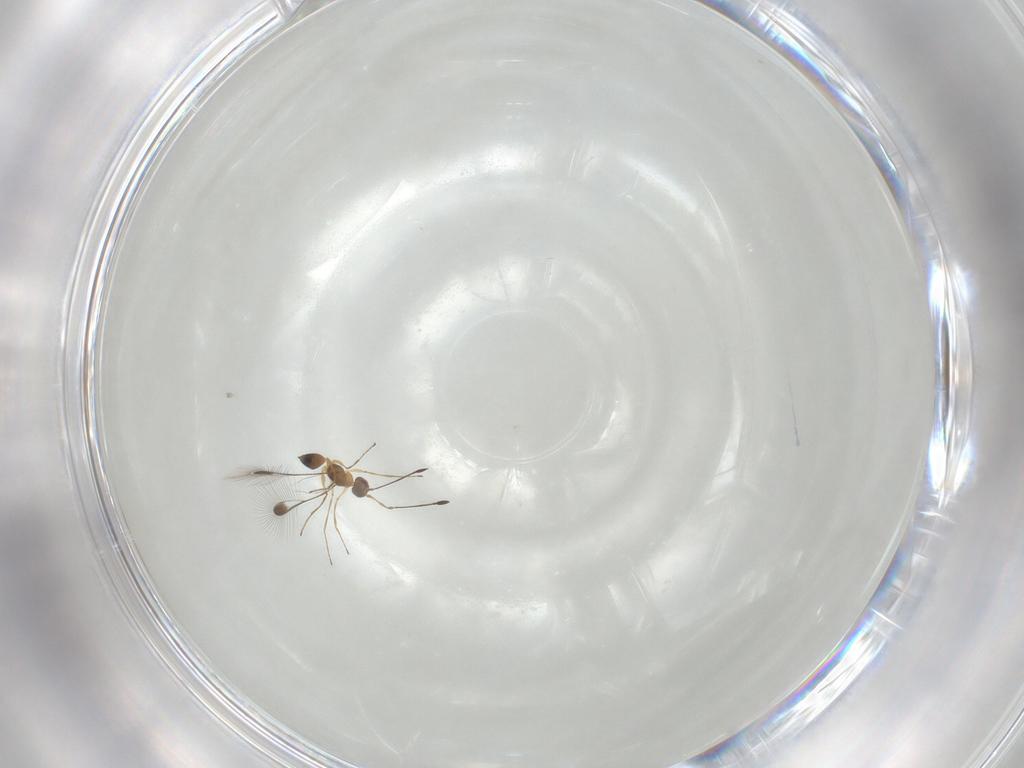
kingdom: Animalia
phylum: Arthropoda
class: Insecta
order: Hymenoptera
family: Mymaridae
